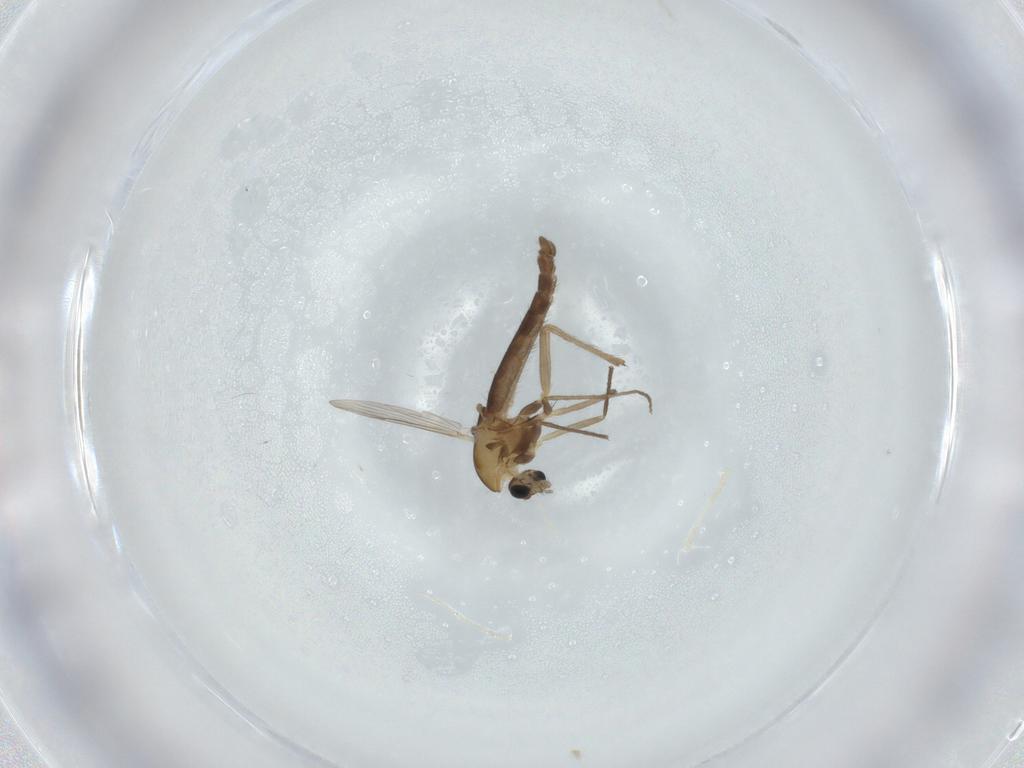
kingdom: Animalia
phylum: Arthropoda
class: Insecta
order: Diptera
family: Chironomidae
